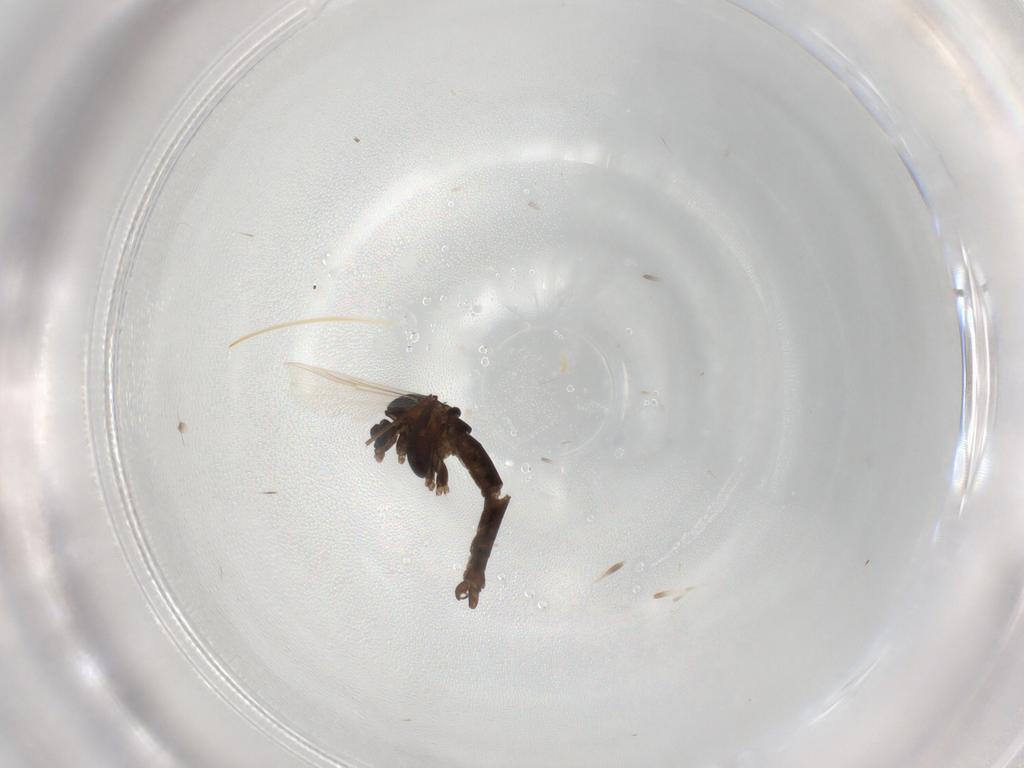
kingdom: Animalia
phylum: Arthropoda
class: Insecta
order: Diptera
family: Chironomidae
